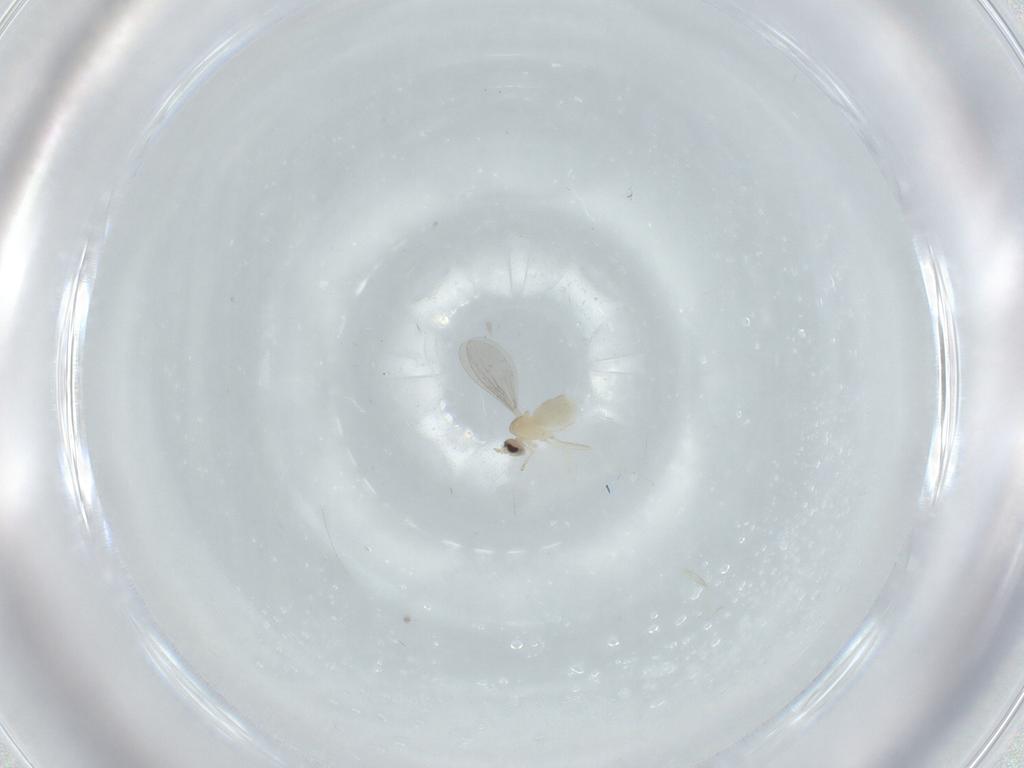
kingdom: Animalia
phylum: Arthropoda
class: Insecta
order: Diptera
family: Cecidomyiidae
